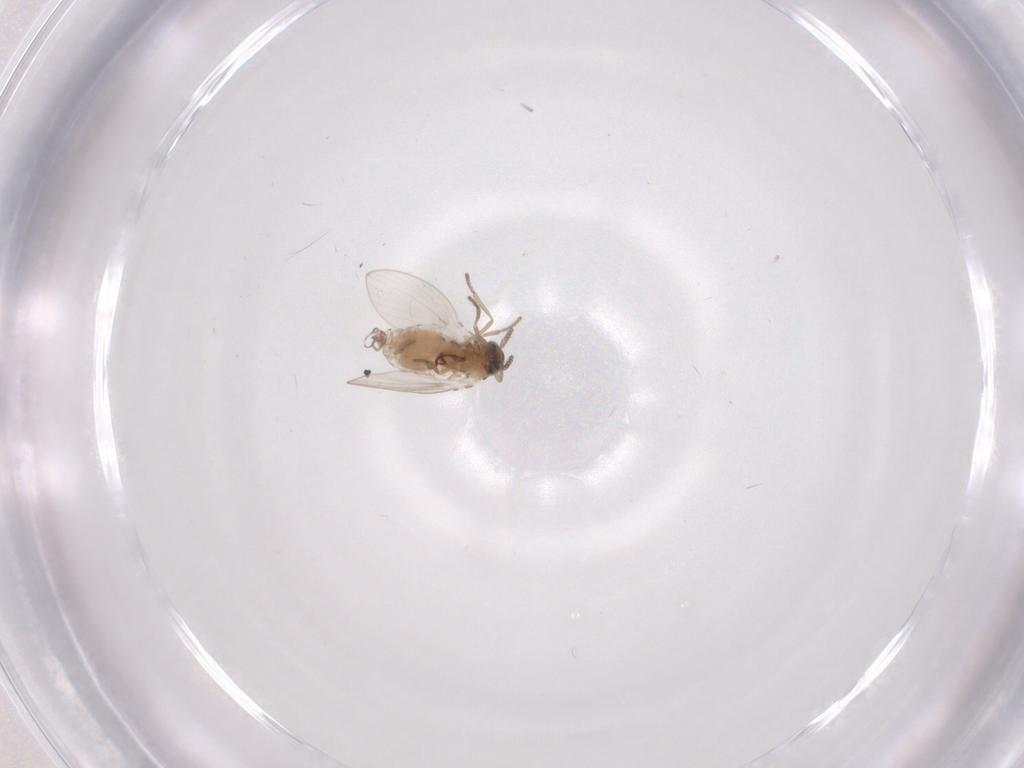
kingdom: Animalia
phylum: Arthropoda
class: Insecta
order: Diptera
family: Psychodidae
